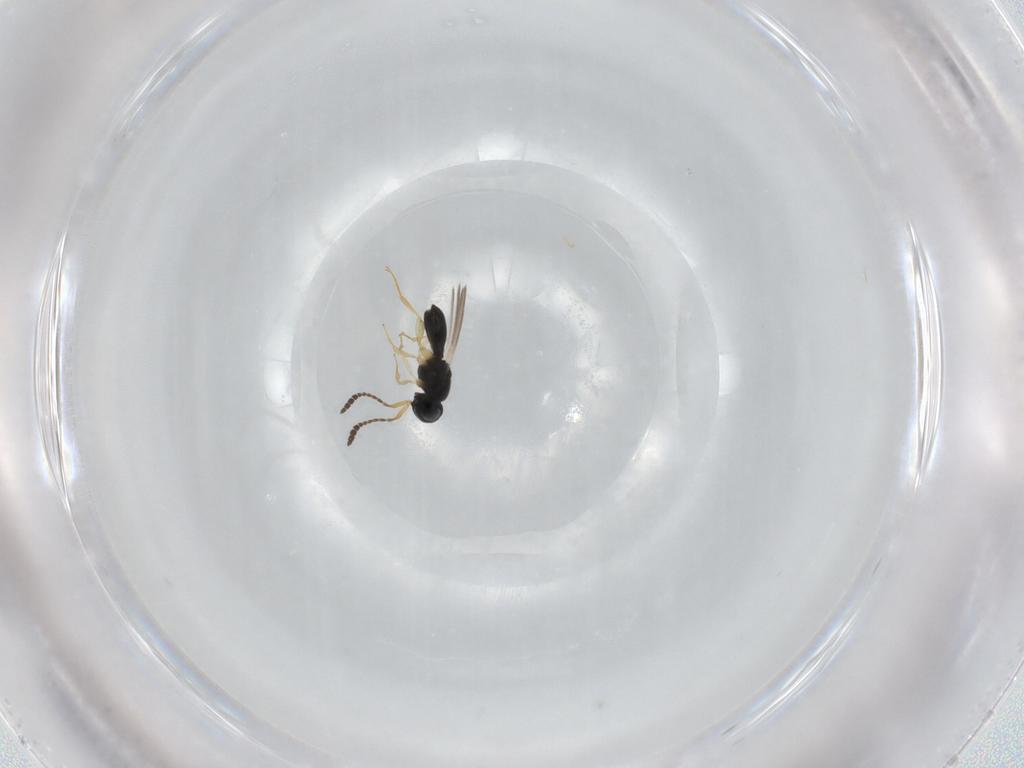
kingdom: Animalia
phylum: Arthropoda
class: Insecta
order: Hymenoptera
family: Scelionidae
